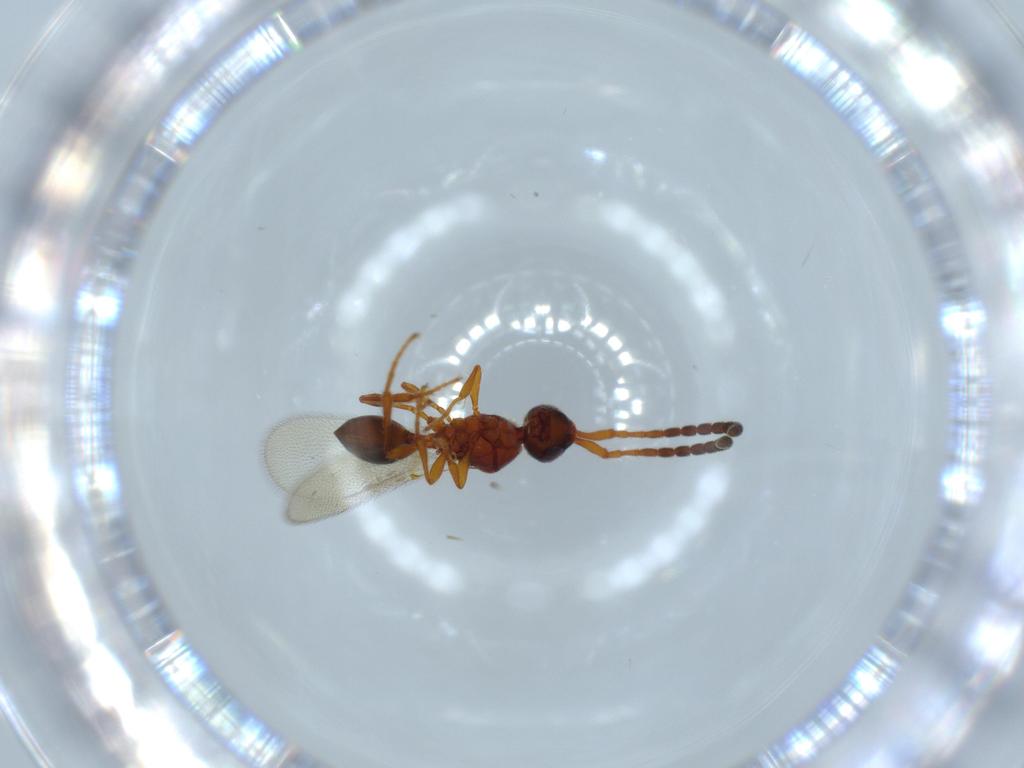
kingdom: Animalia
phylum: Arthropoda
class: Insecta
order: Hymenoptera
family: Diapriidae
